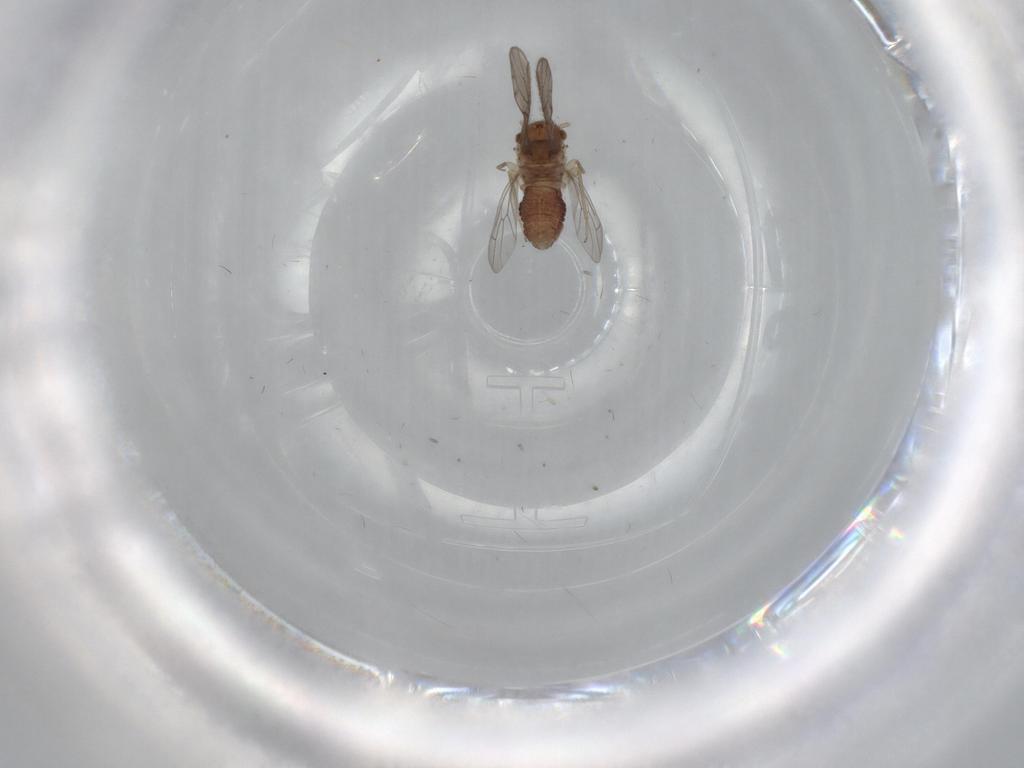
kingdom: Animalia
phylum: Arthropoda
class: Insecta
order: Psocodea
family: Ectopsocidae
